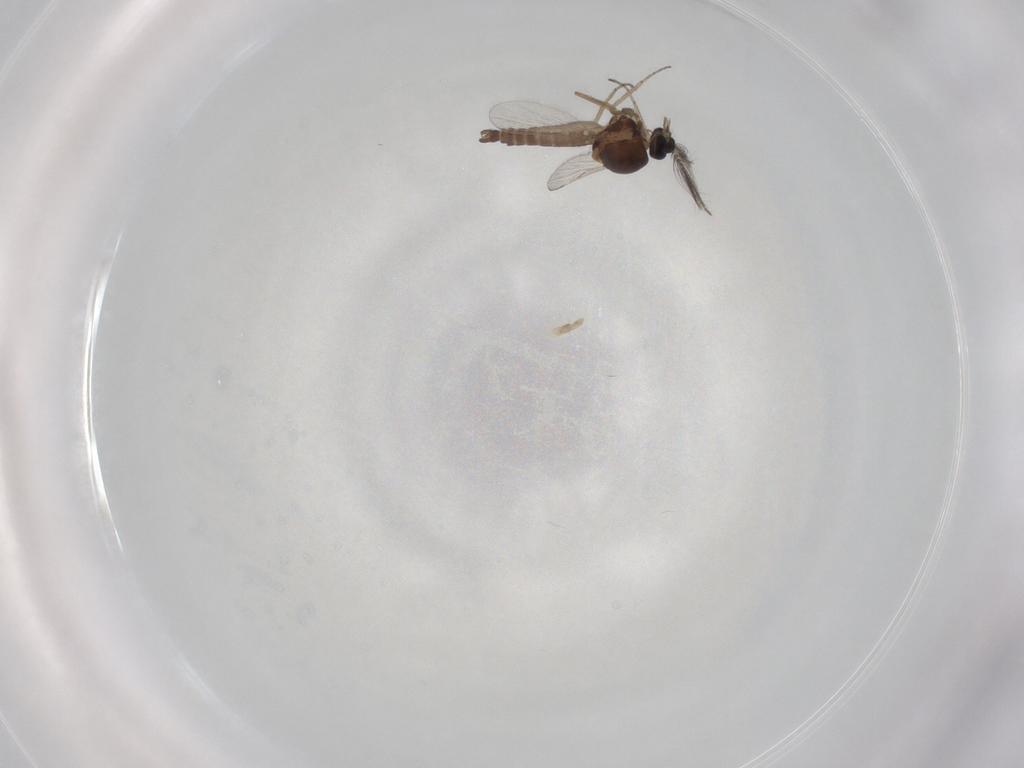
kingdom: Animalia
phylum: Arthropoda
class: Insecta
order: Diptera
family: Ceratopogonidae
